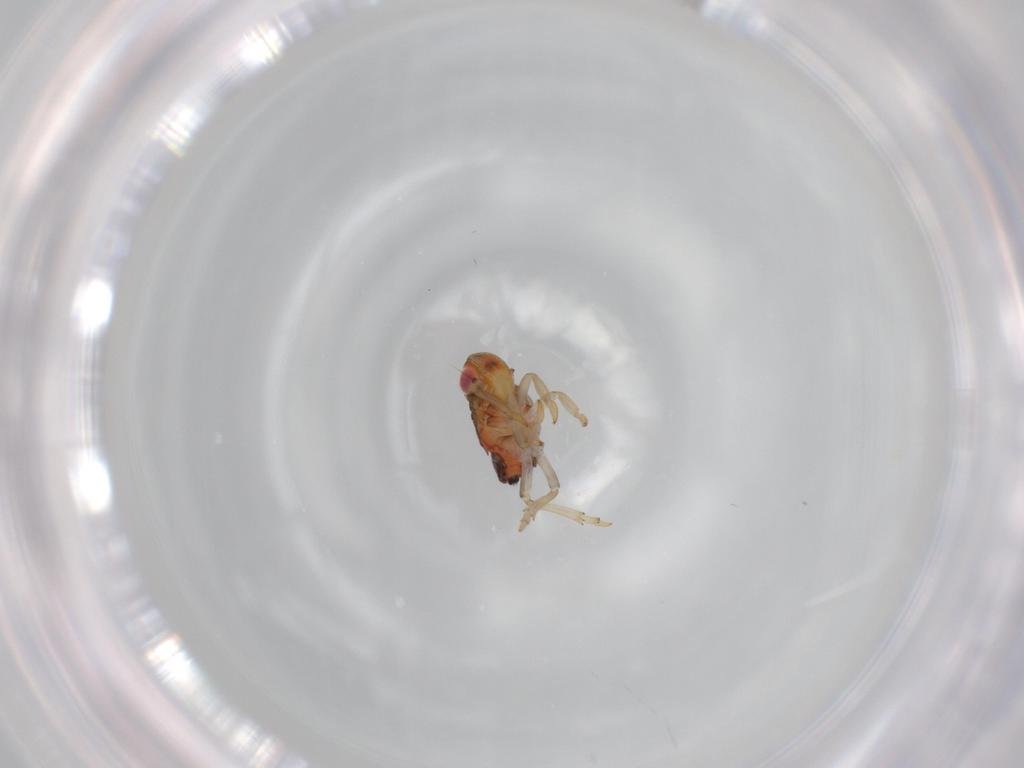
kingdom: Animalia
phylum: Arthropoda
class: Insecta
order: Hemiptera
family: Issidae
